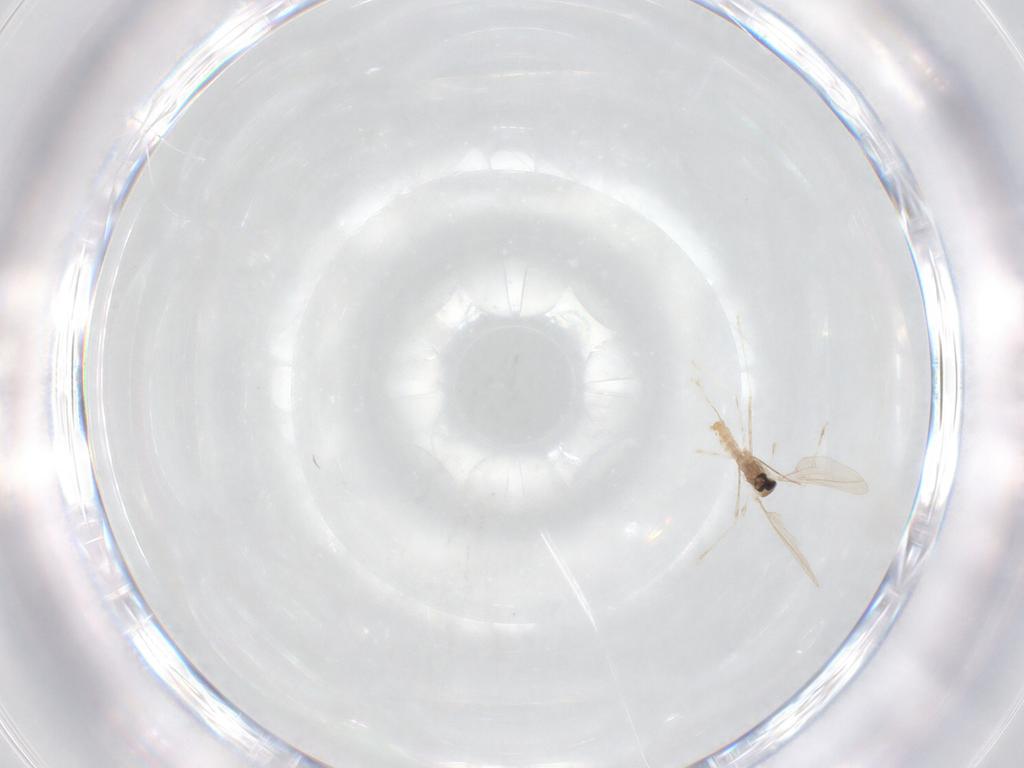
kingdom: Animalia
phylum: Arthropoda
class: Insecta
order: Diptera
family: Cecidomyiidae
